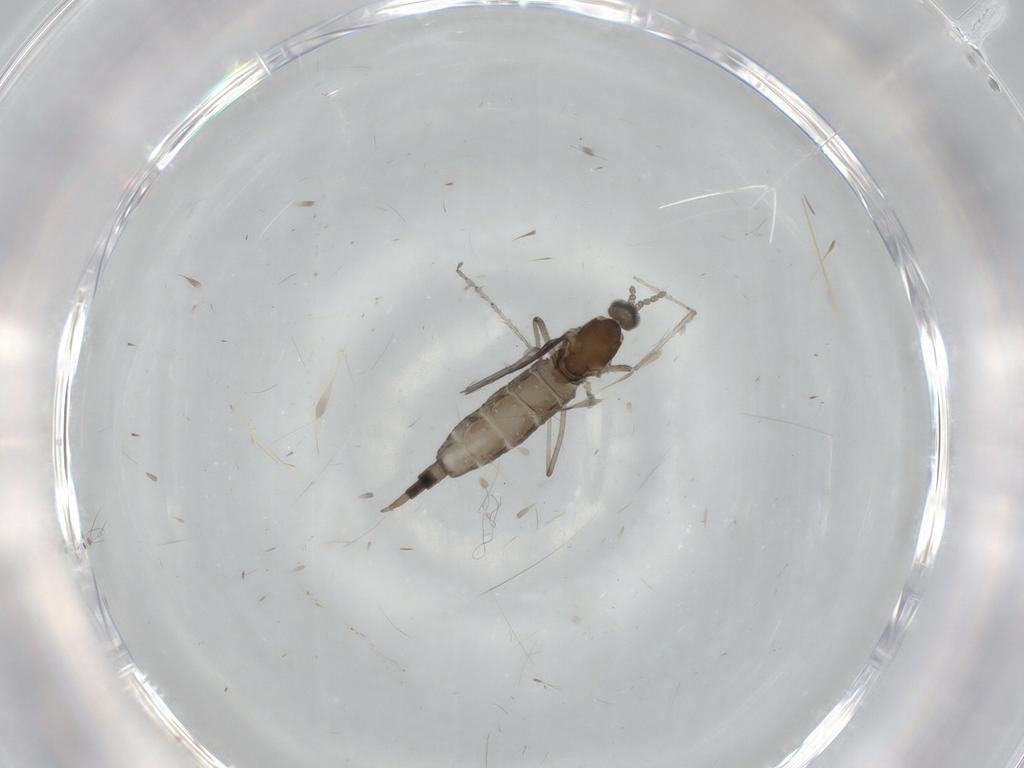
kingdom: Animalia
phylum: Arthropoda
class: Insecta
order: Diptera
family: Cecidomyiidae
